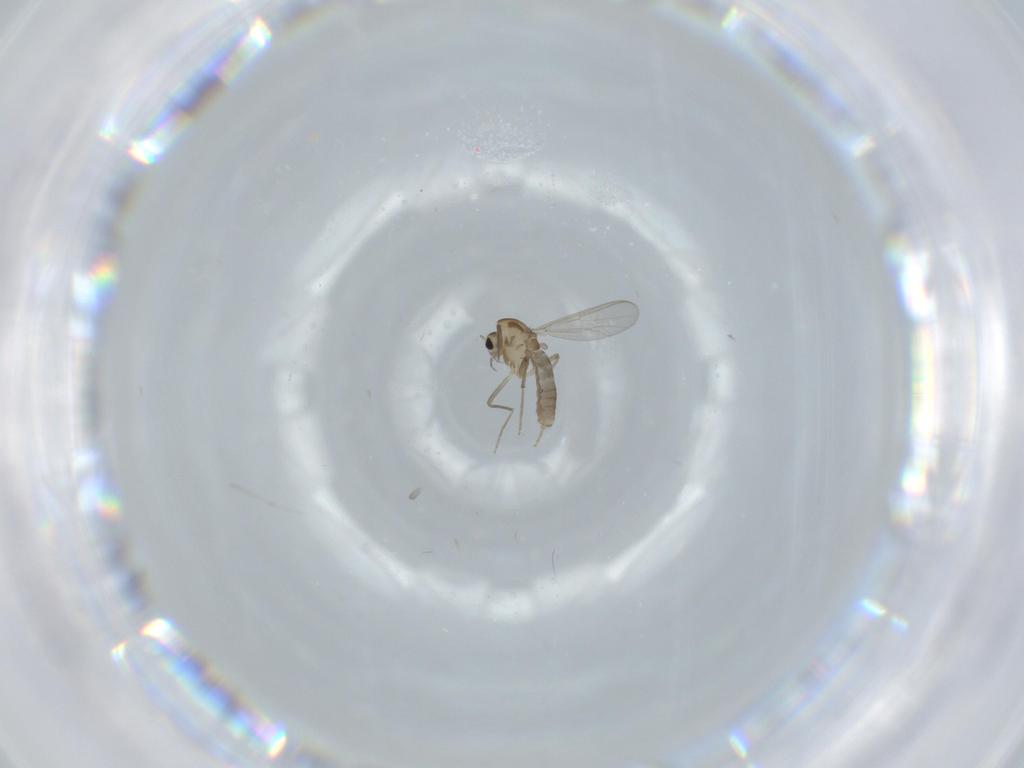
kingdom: Animalia
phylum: Arthropoda
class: Insecta
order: Diptera
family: Chironomidae
